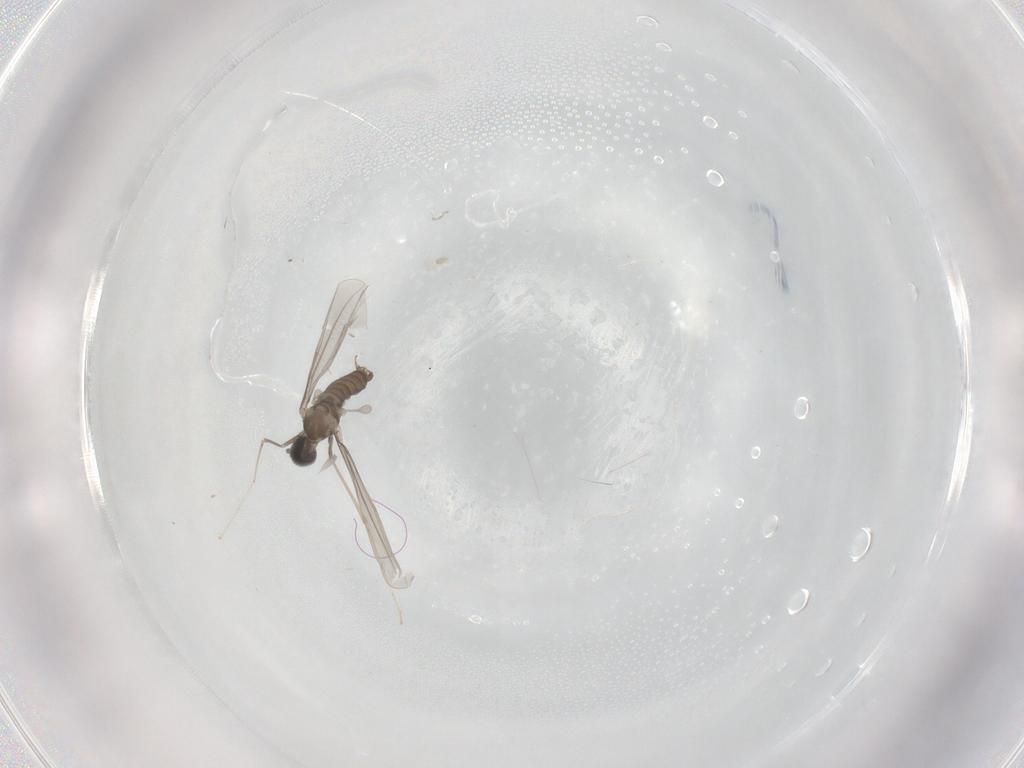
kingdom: Animalia
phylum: Arthropoda
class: Insecta
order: Diptera
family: Cecidomyiidae
